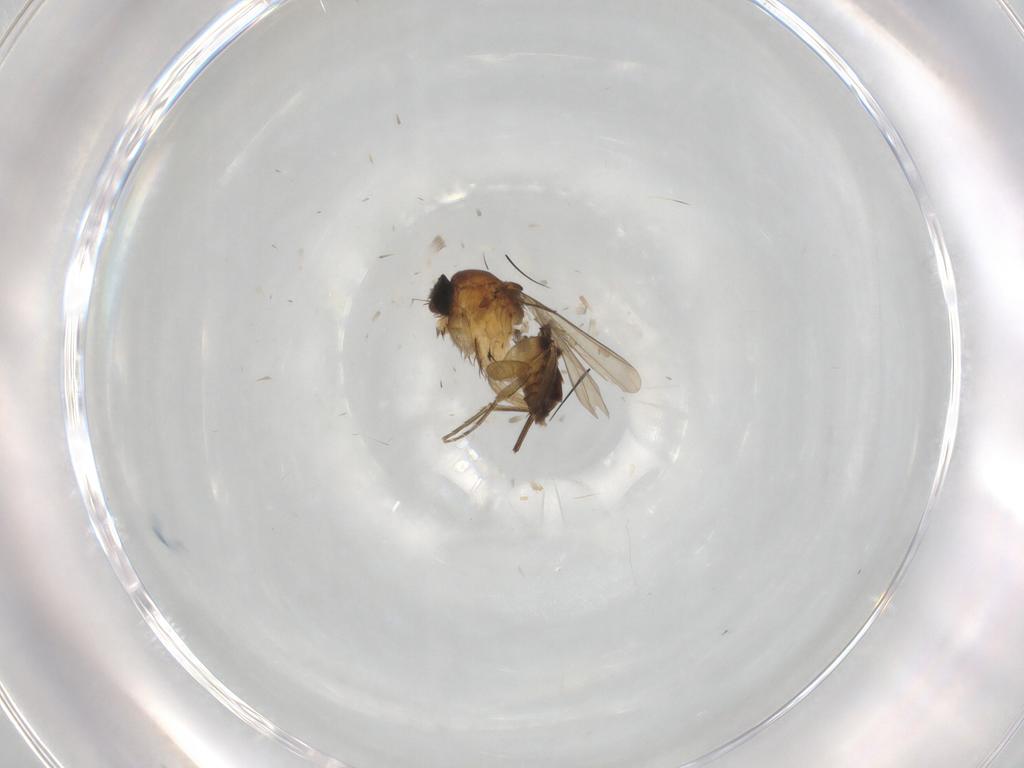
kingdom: Animalia
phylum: Arthropoda
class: Insecta
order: Diptera
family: Phoridae
